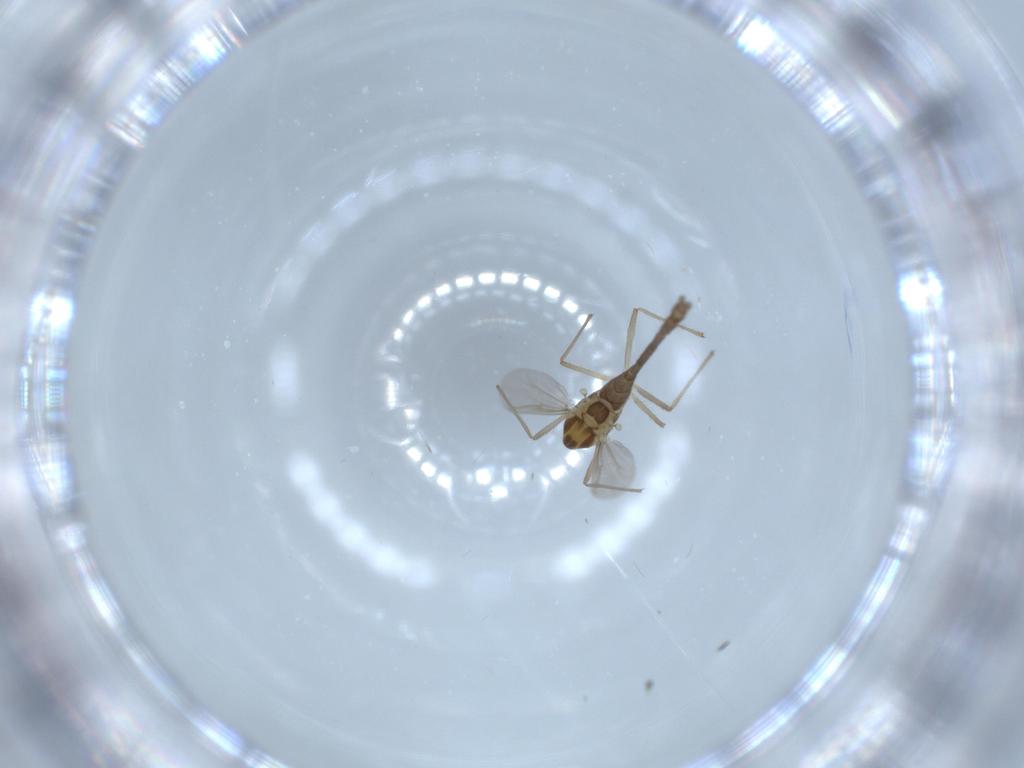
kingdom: Animalia
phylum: Arthropoda
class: Insecta
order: Diptera
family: Chironomidae
